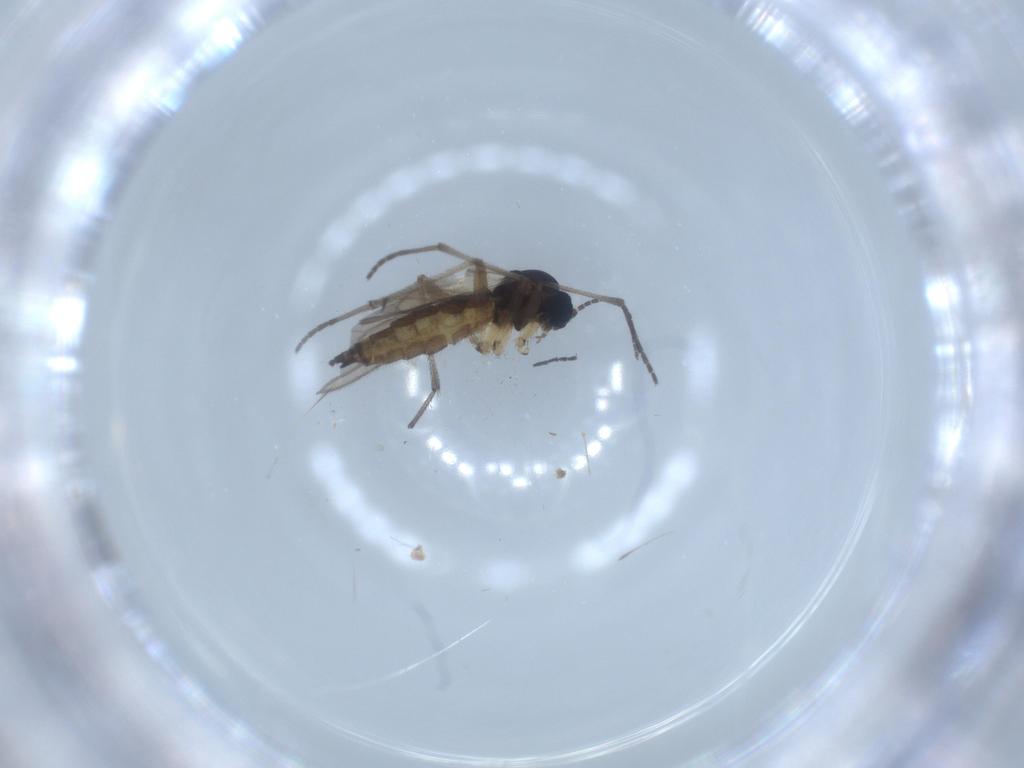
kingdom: Animalia
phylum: Arthropoda
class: Insecta
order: Diptera
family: Sciaridae
